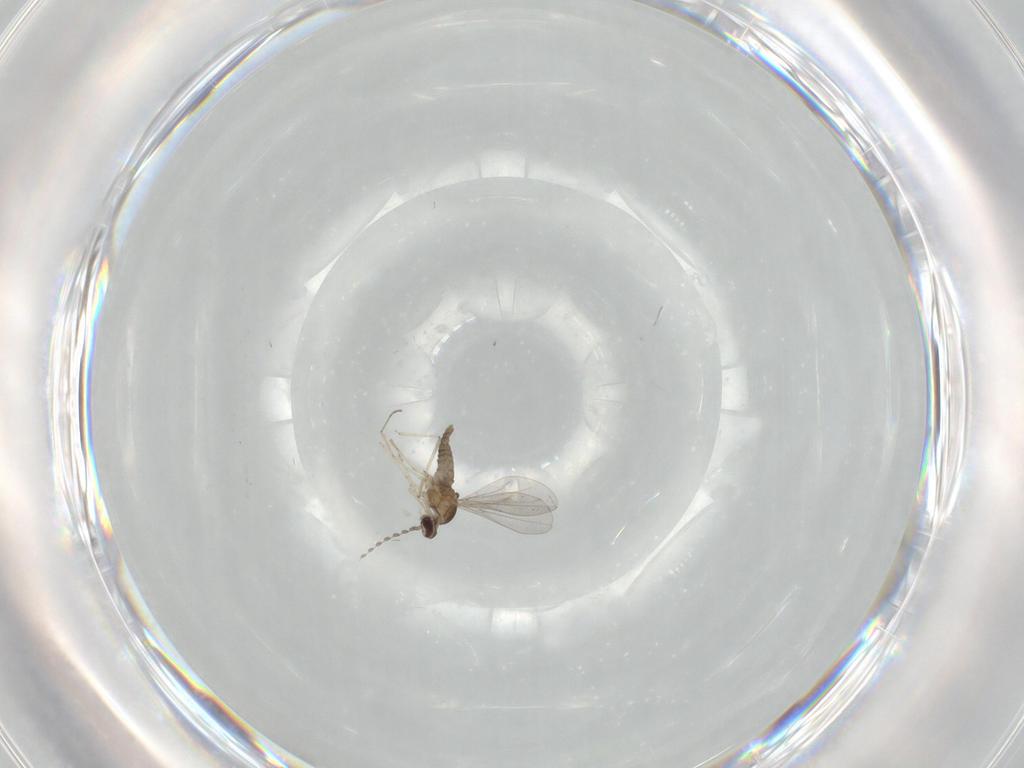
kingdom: Animalia
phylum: Arthropoda
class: Insecta
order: Diptera
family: Cecidomyiidae
